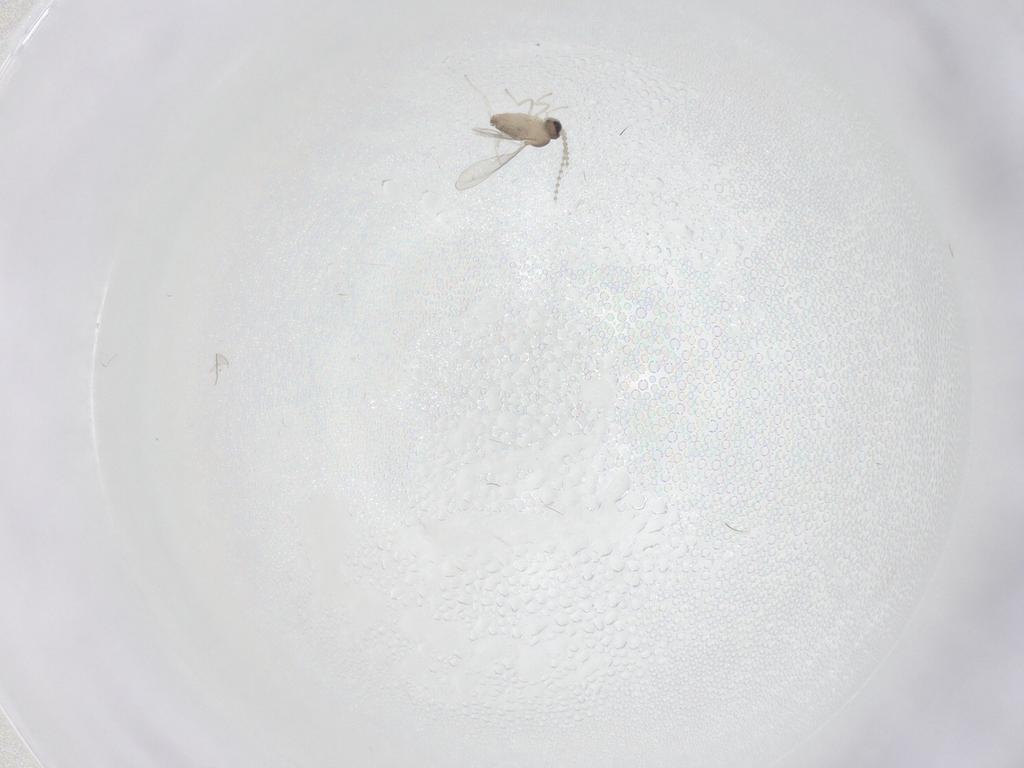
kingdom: Animalia
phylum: Arthropoda
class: Insecta
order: Diptera
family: Cecidomyiidae
